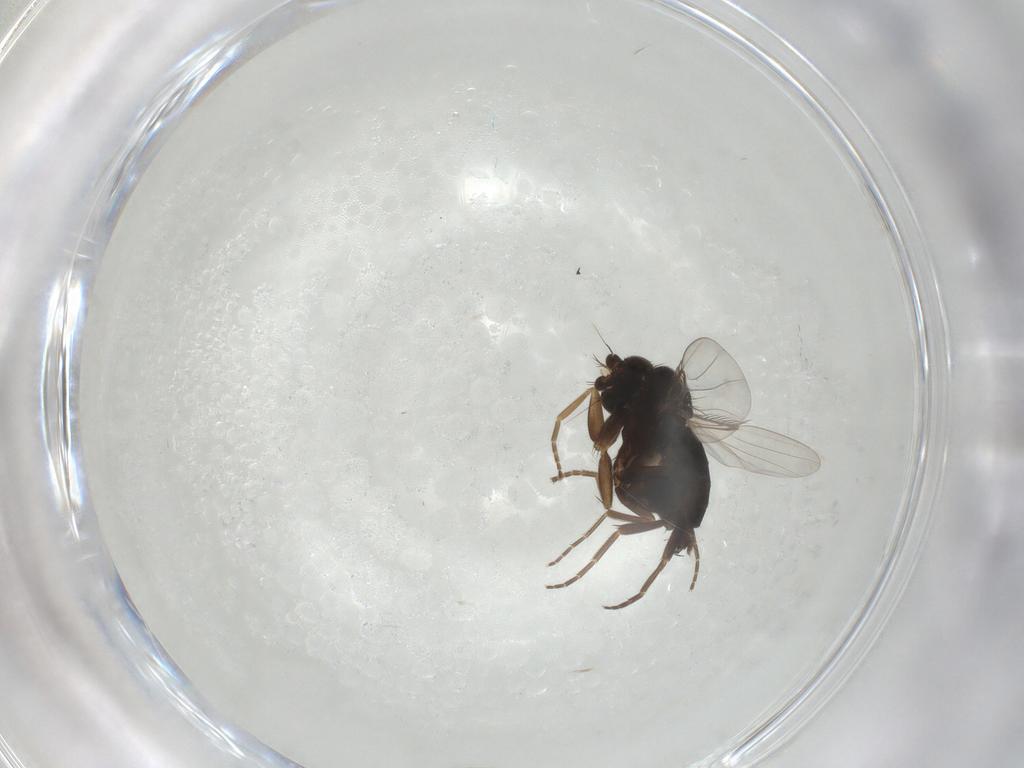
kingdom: Animalia
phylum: Arthropoda
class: Insecta
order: Diptera
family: Phoridae
